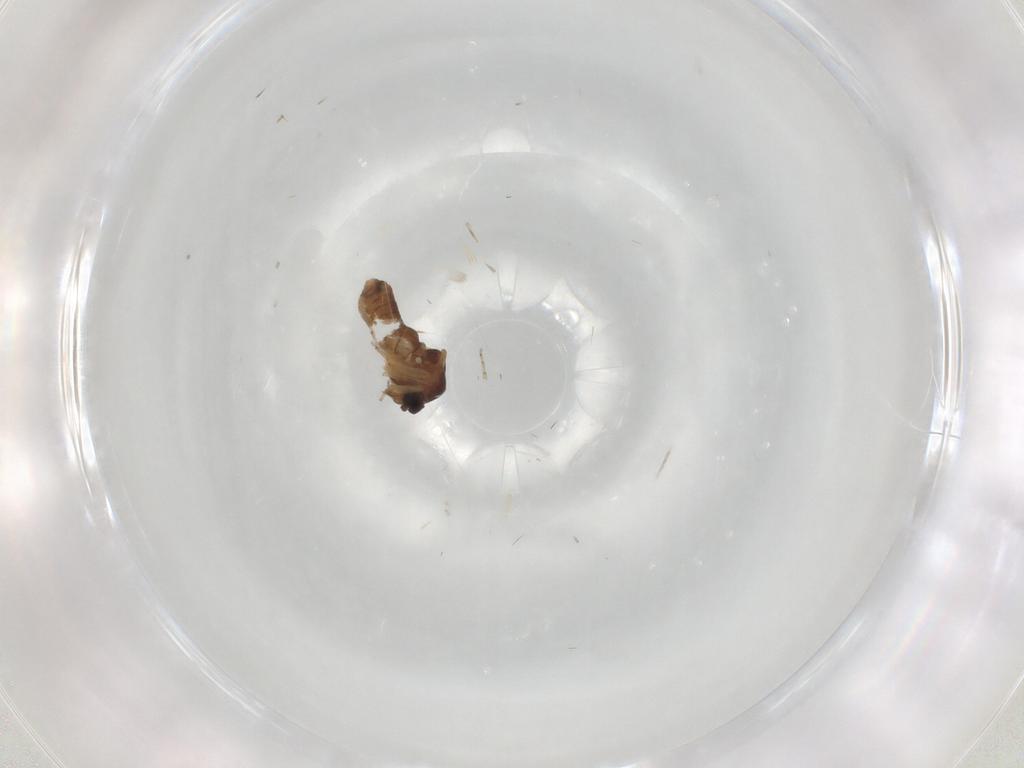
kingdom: Animalia
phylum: Arthropoda
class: Insecta
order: Diptera
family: Ceratopogonidae
